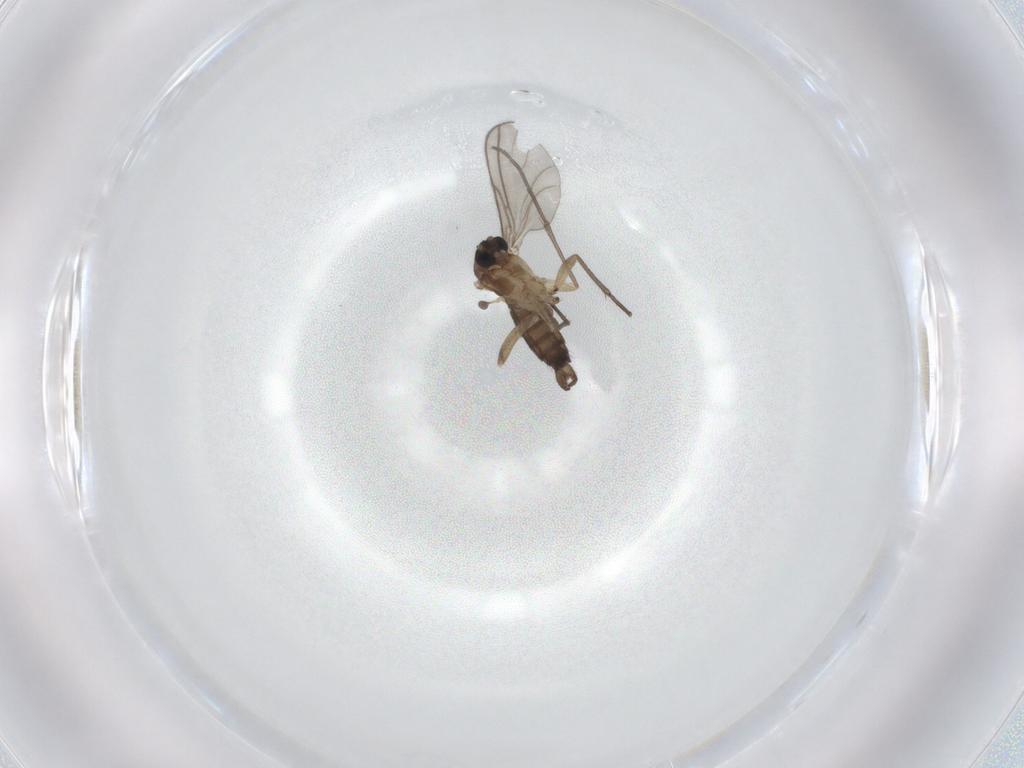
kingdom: Animalia
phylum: Arthropoda
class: Insecta
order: Diptera
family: Sciaridae
